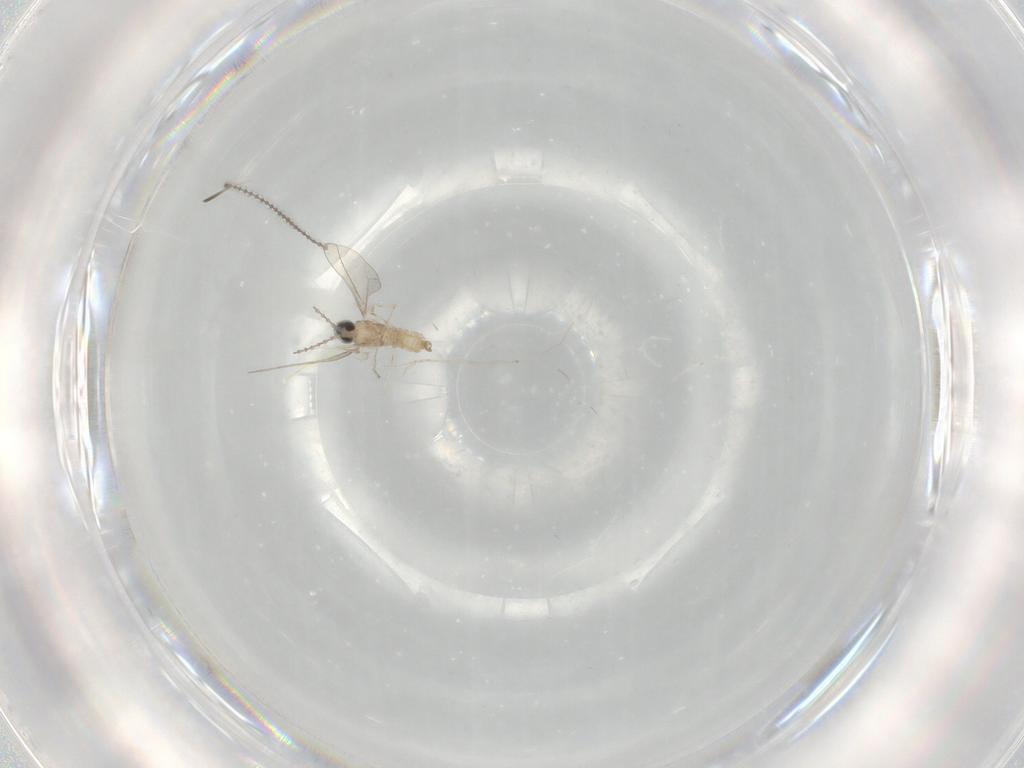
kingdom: Animalia
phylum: Arthropoda
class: Insecta
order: Diptera
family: Cecidomyiidae
